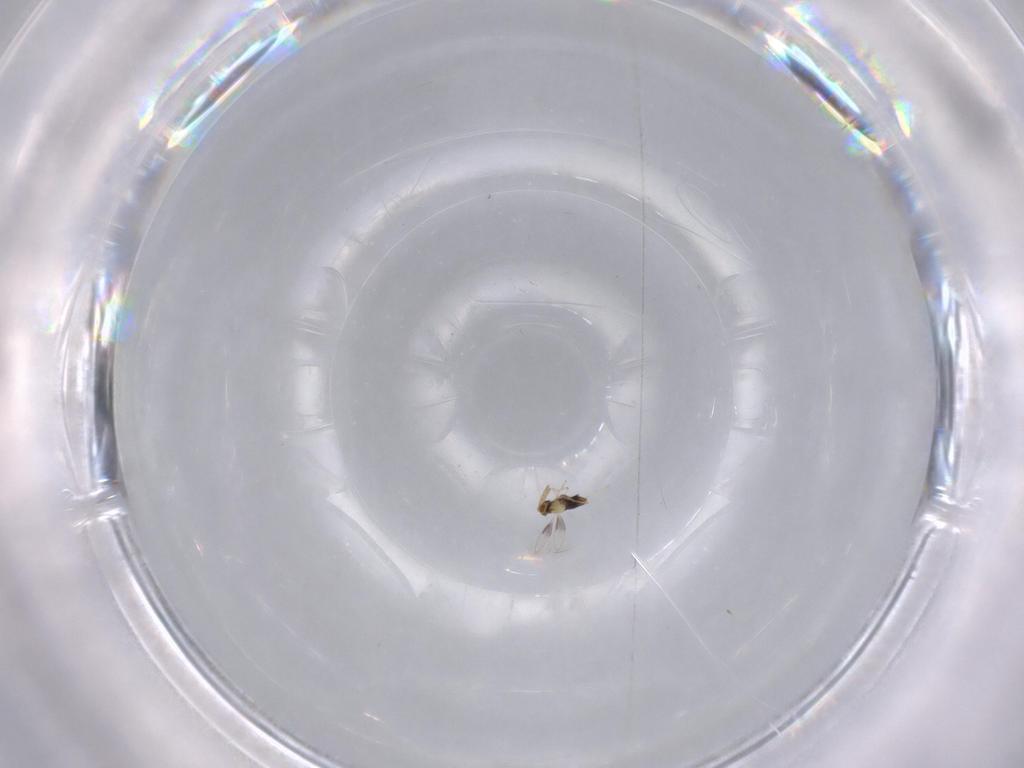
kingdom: Animalia
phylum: Arthropoda
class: Insecta
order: Hymenoptera
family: Aphelinidae
